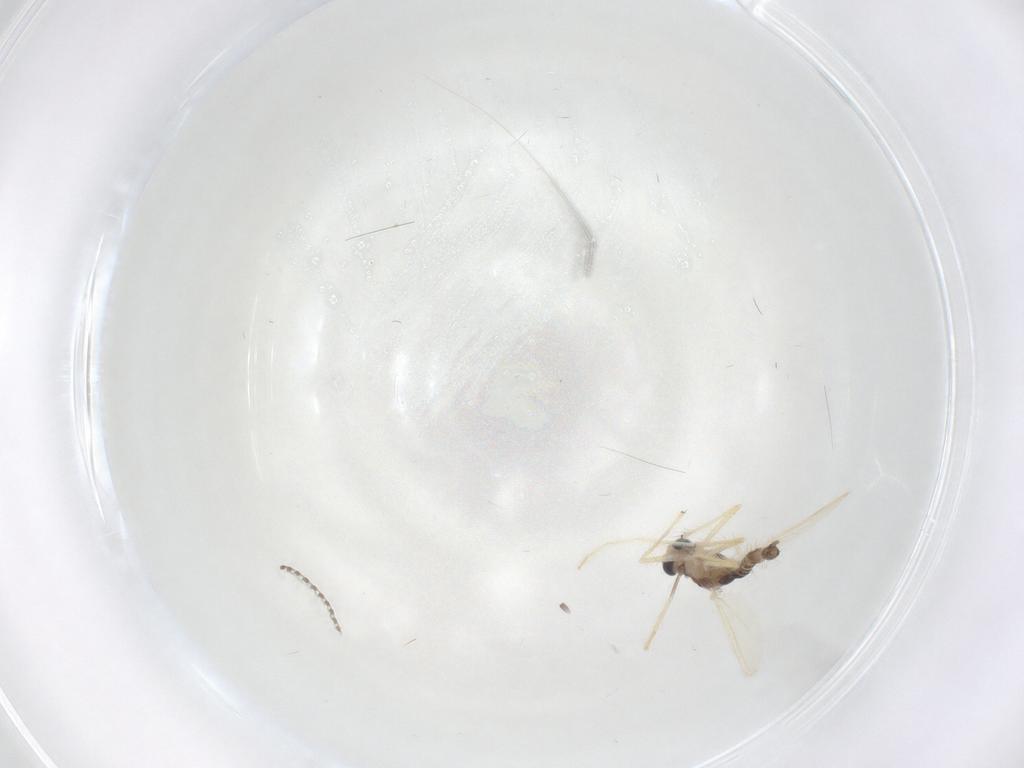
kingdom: Animalia
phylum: Arthropoda
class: Insecta
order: Diptera
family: Chironomidae
